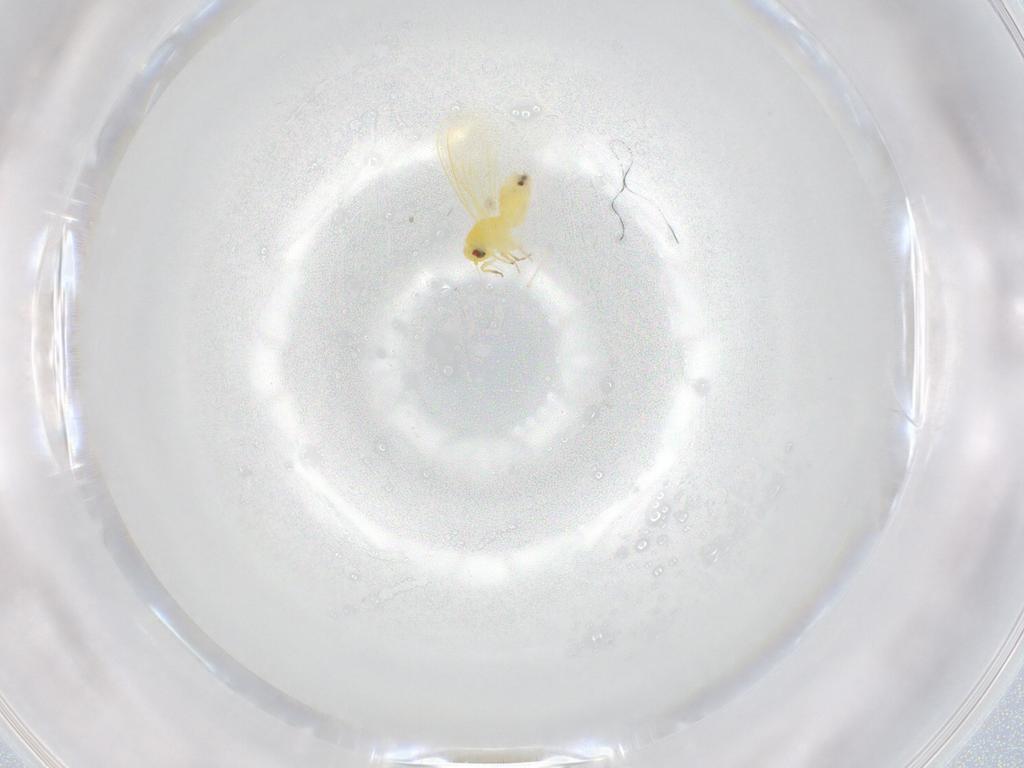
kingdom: Animalia
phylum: Arthropoda
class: Insecta
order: Hemiptera
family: Aleyrodidae
